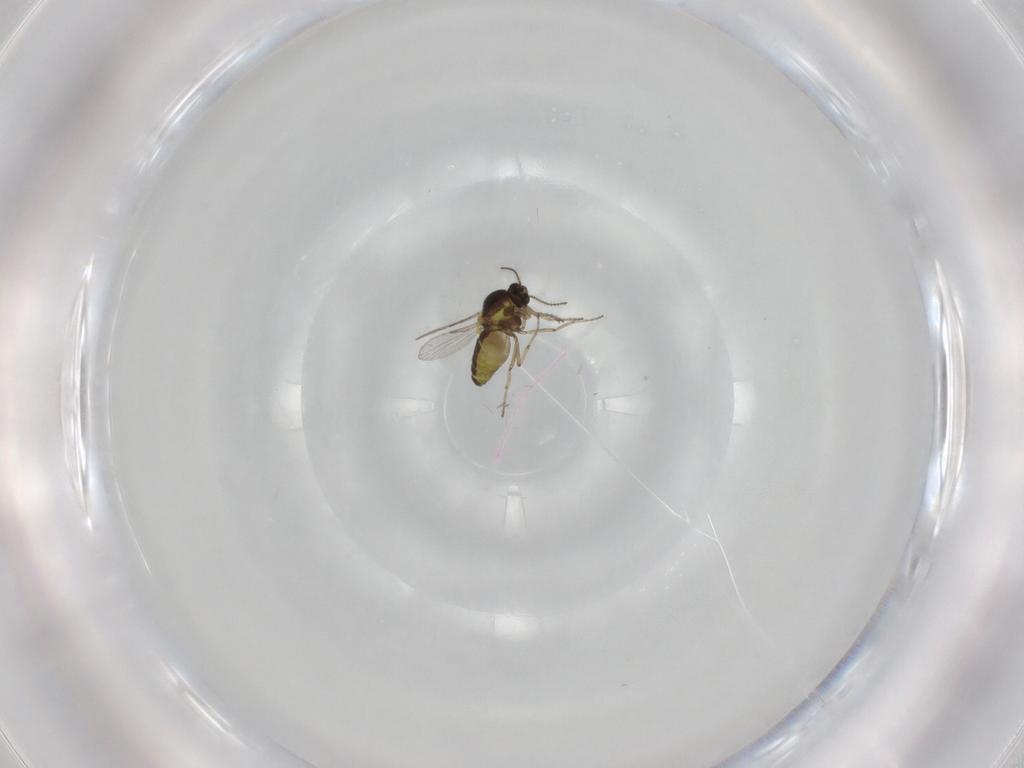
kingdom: Animalia
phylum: Arthropoda
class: Insecta
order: Diptera
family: Ceratopogonidae
